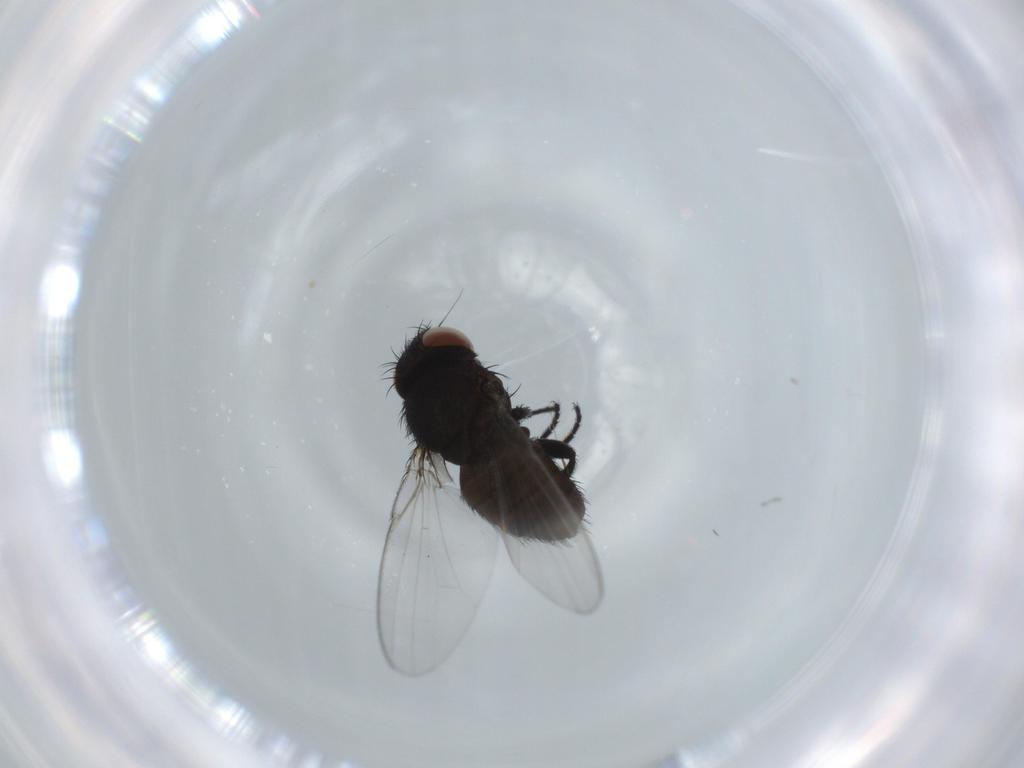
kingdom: Animalia
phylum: Arthropoda
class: Insecta
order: Diptera
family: Milichiidae
